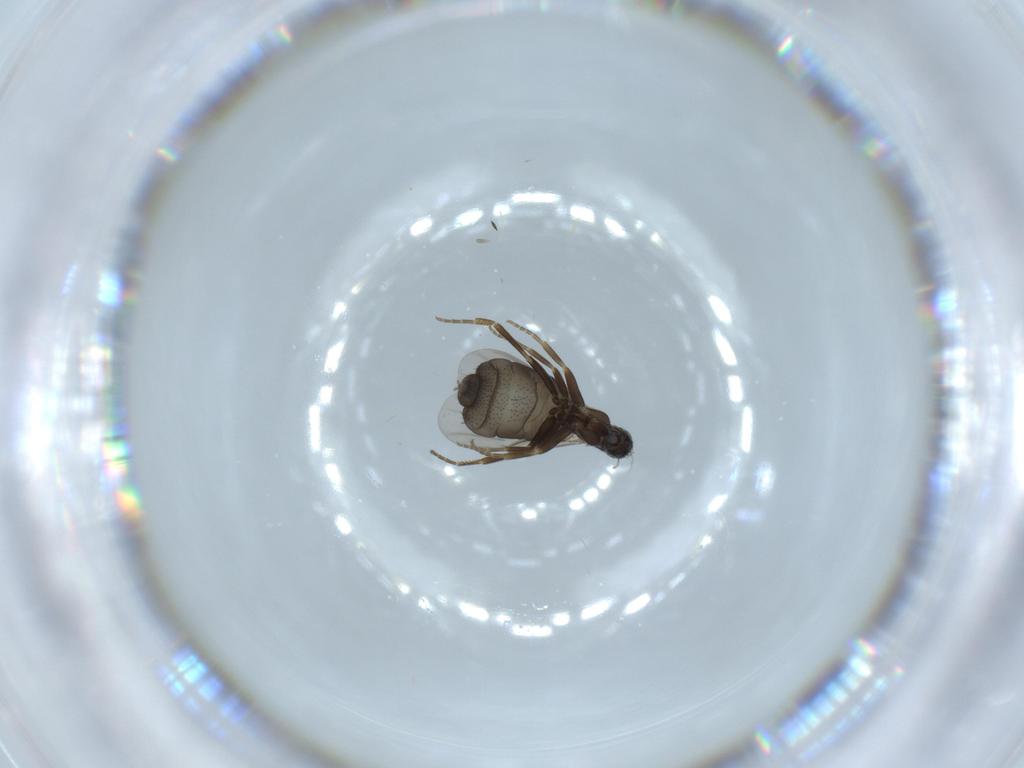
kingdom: Animalia
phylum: Arthropoda
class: Insecta
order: Diptera
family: Phoridae
